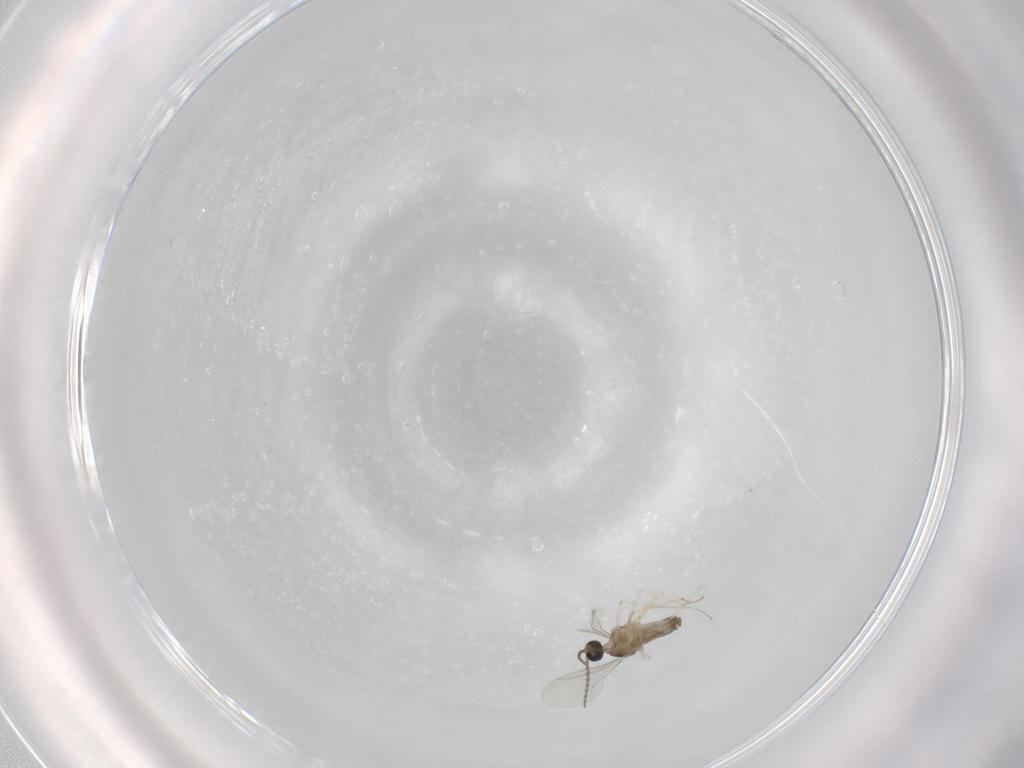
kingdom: Animalia
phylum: Arthropoda
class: Insecta
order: Diptera
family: Cecidomyiidae
